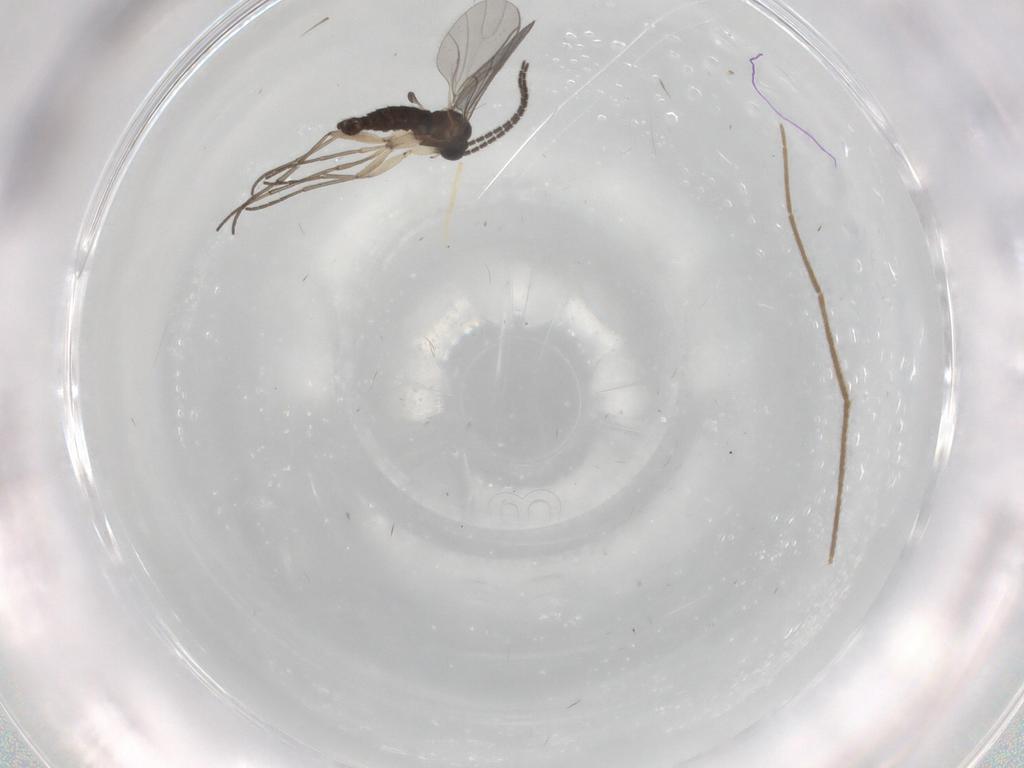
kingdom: Animalia
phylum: Arthropoda
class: Insecta
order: Diptera
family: Sciaridae
